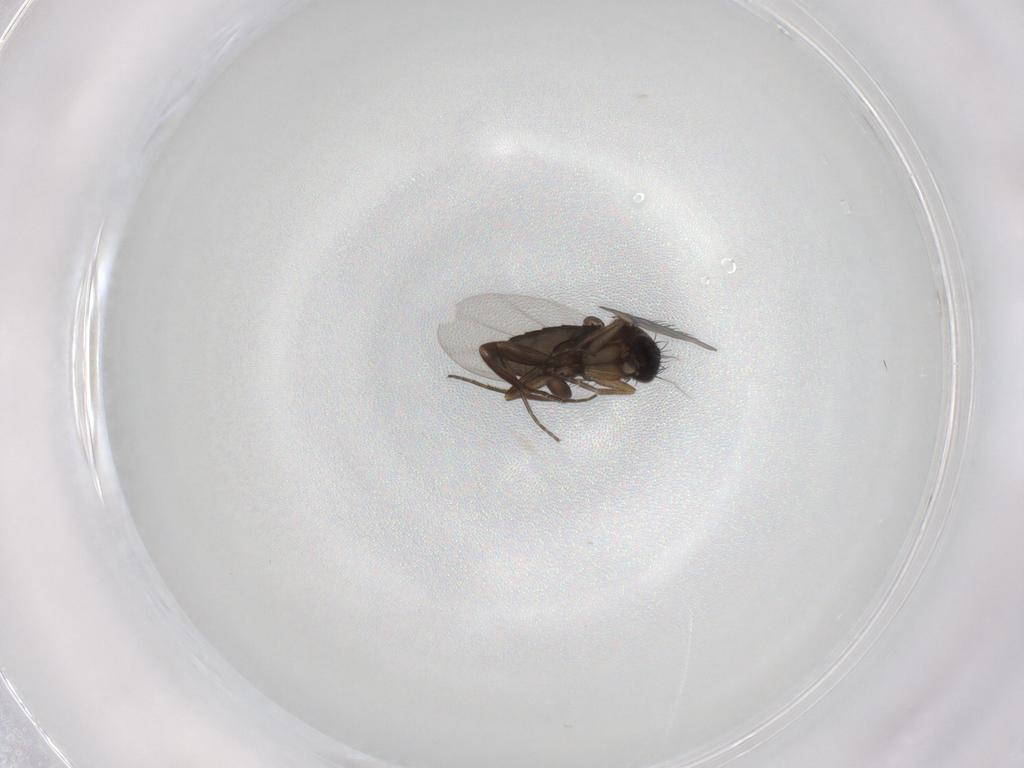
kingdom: Animalia
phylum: Arthropoda
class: Insecta
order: Diptera
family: Phoridae
